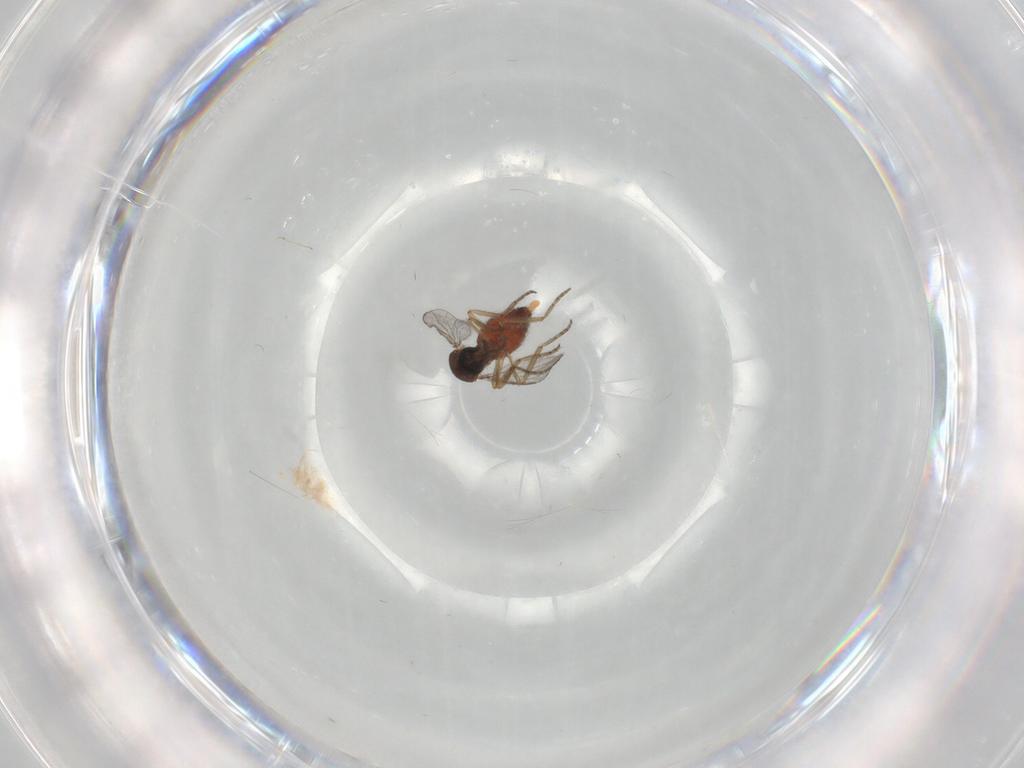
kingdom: Animalia
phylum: Arthropoda
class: Insecta
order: Diptera
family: Ceratopogonidae
